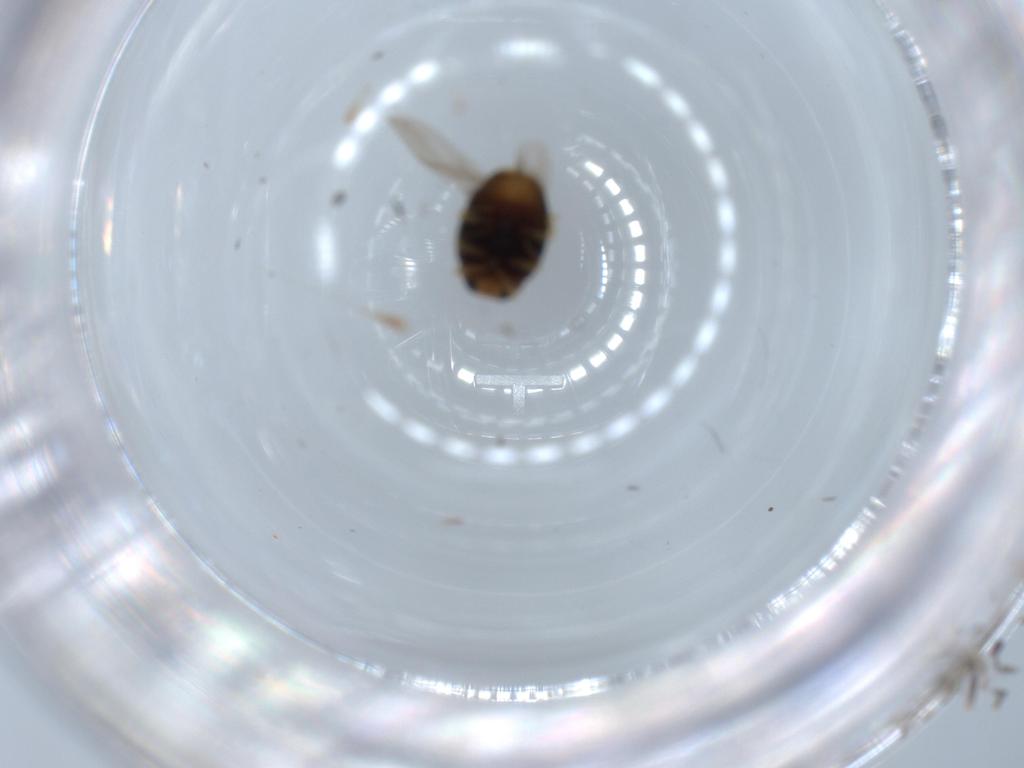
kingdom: Animalia
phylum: Arthropoda
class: Insecta
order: Coleoptera
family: Coccinellidae
